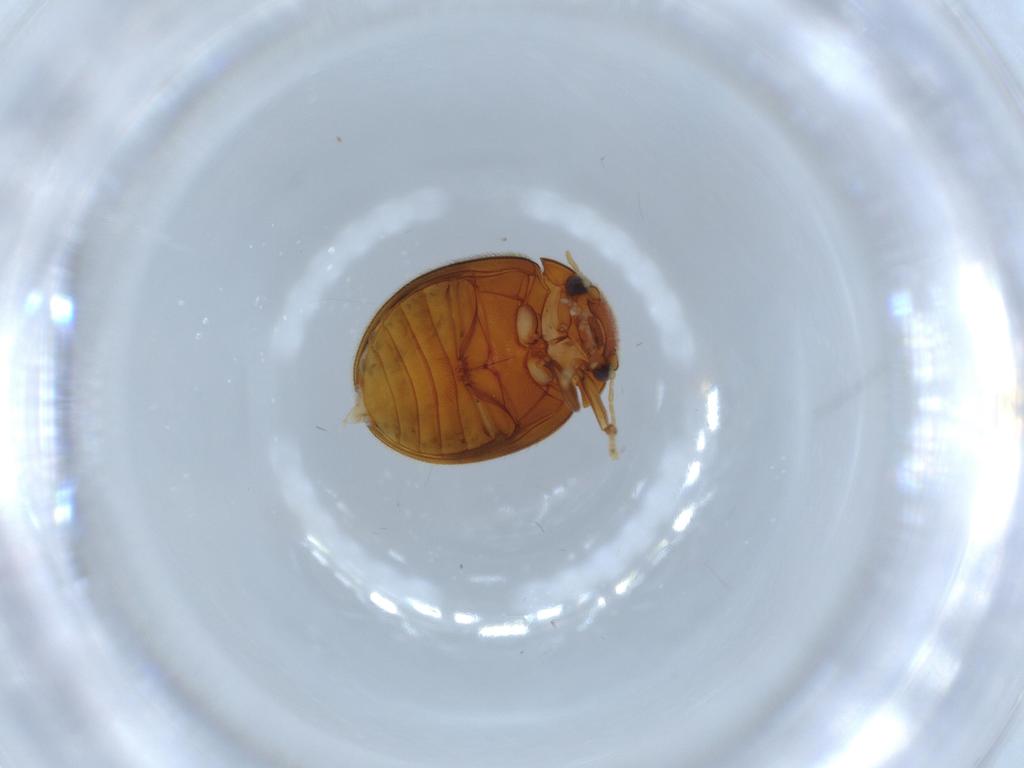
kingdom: Animalia
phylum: Arthropoda
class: Insecta
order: Coleoptera
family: Scirtidae
